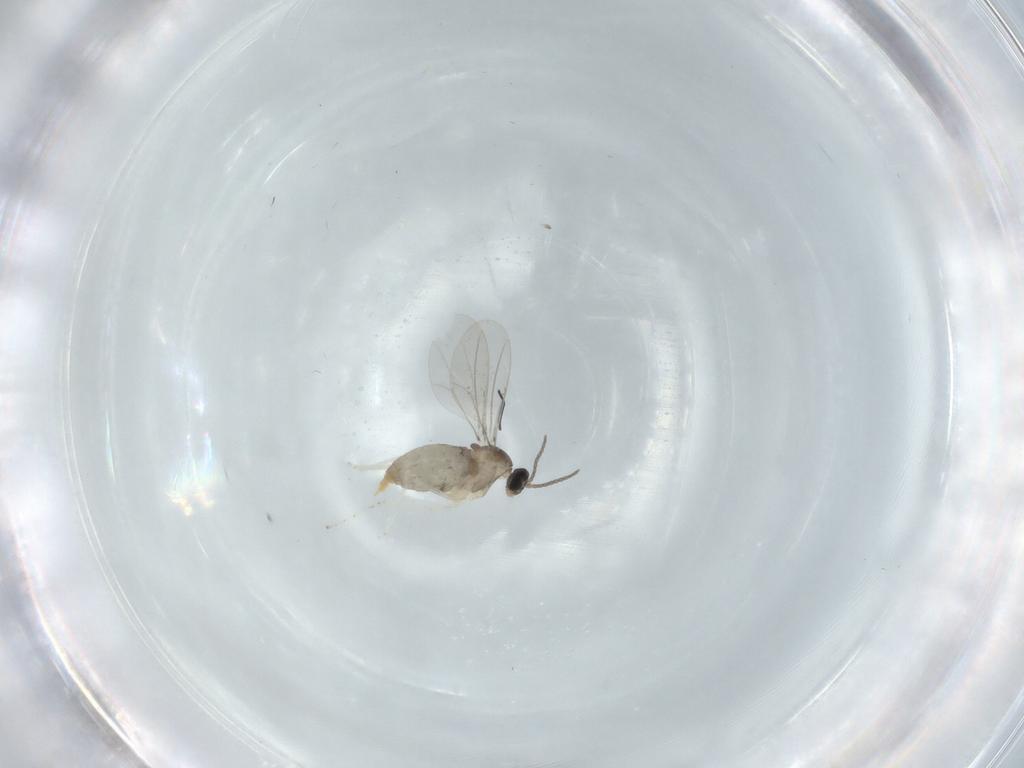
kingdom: Animalia
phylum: Arthropoda
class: Insecta
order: Diptera
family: Cecidomyiidae
